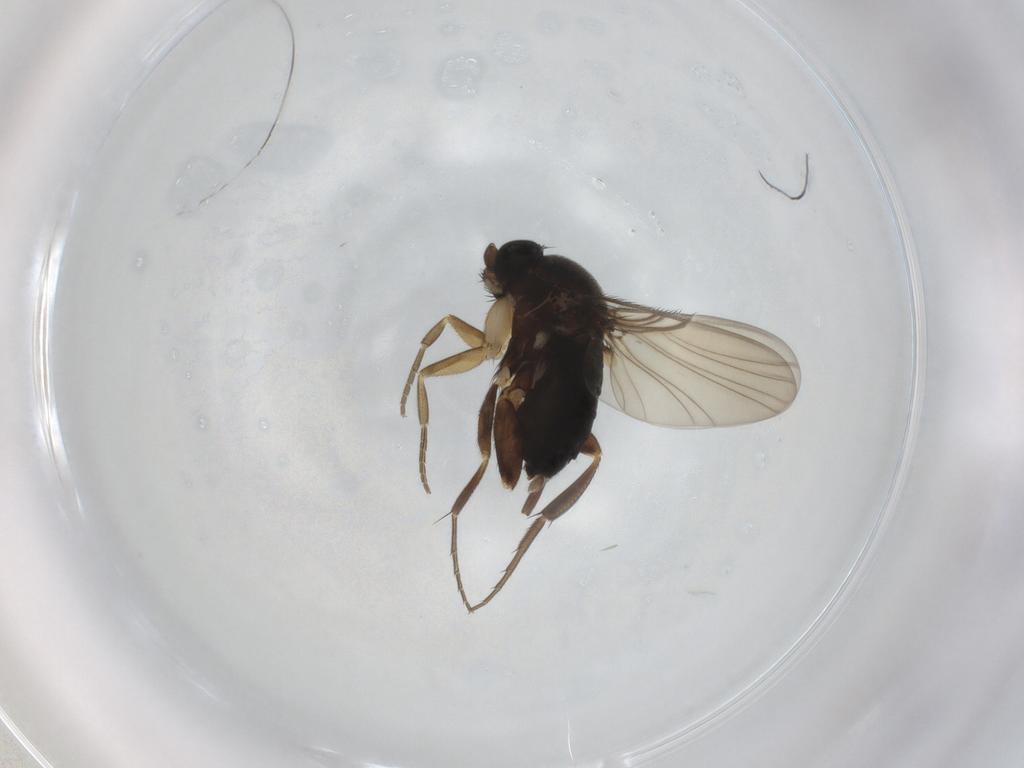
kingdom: Animalia
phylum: Arthropoda
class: Insecta
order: Diptera
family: Phoridae
